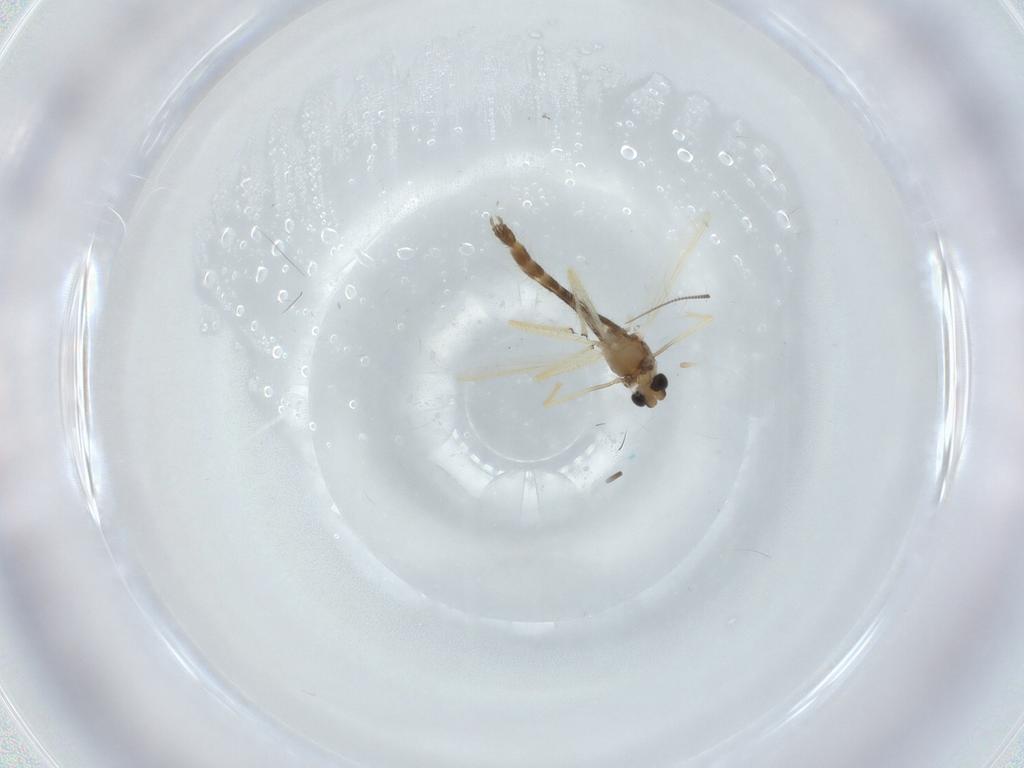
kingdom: Animalia
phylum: Arthropoda
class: Insecta
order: Diptera
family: Chironomidae
